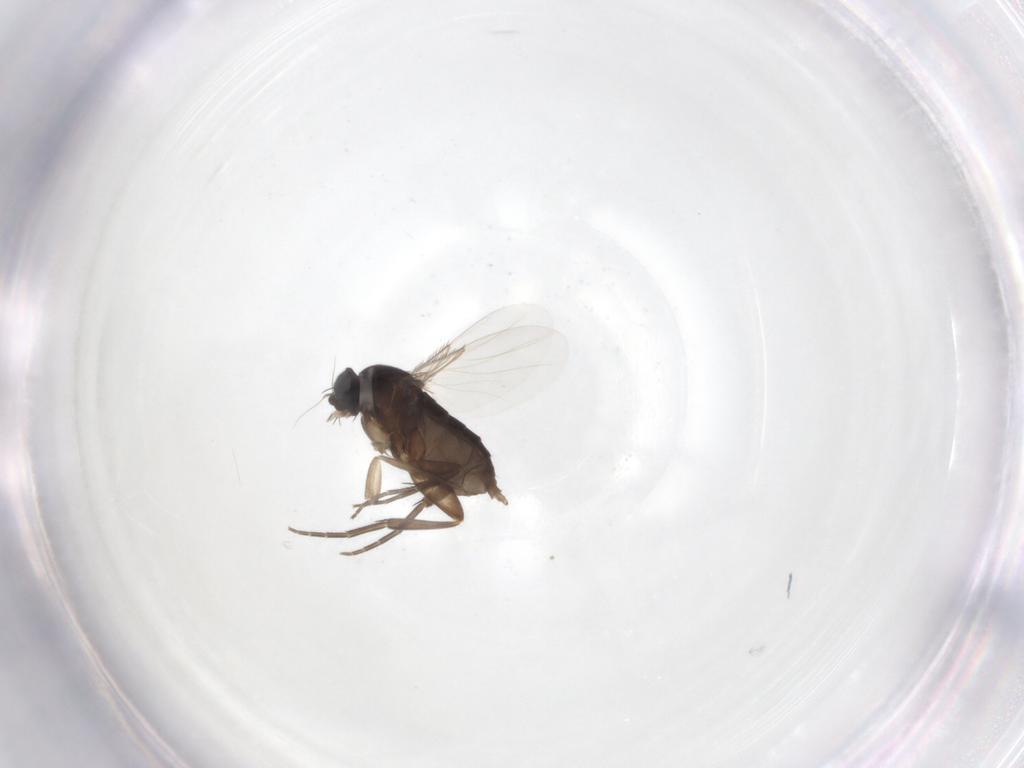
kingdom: Animalia
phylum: Arthropoda
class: Insecta
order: Diptera
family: Phoridae
